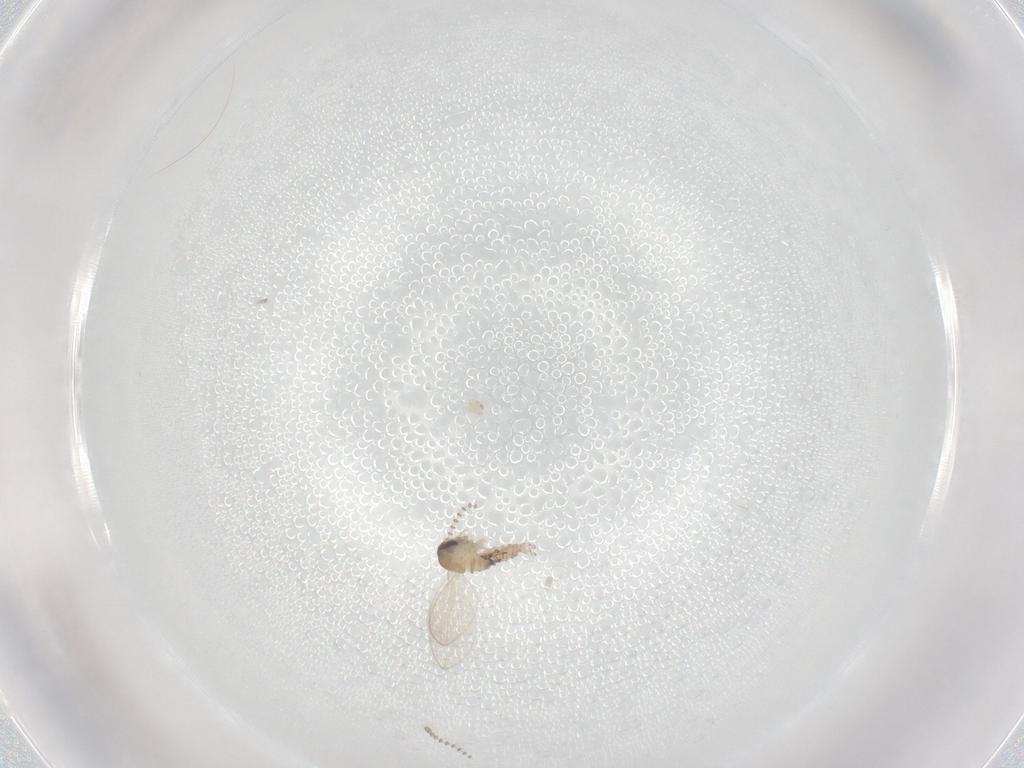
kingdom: Animalia
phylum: Arthropoda
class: Insecta
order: Diptera
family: Psychodidae
